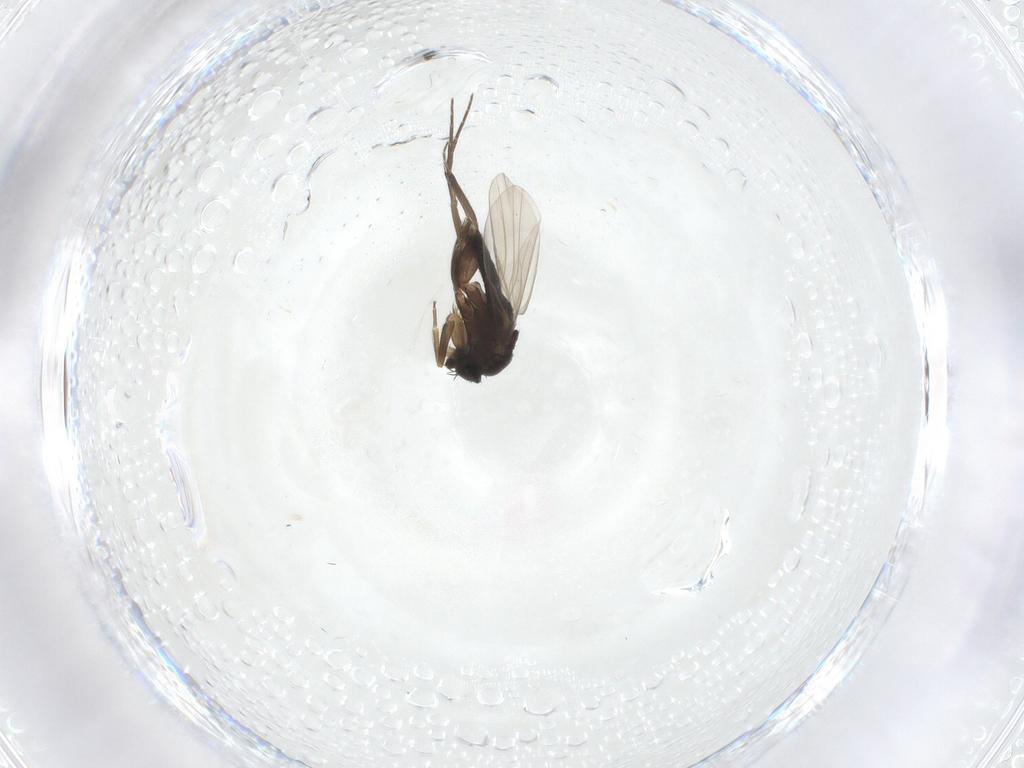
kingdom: Animalia
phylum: Arthropoda
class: Insecta
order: Diptera
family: Phoridae
